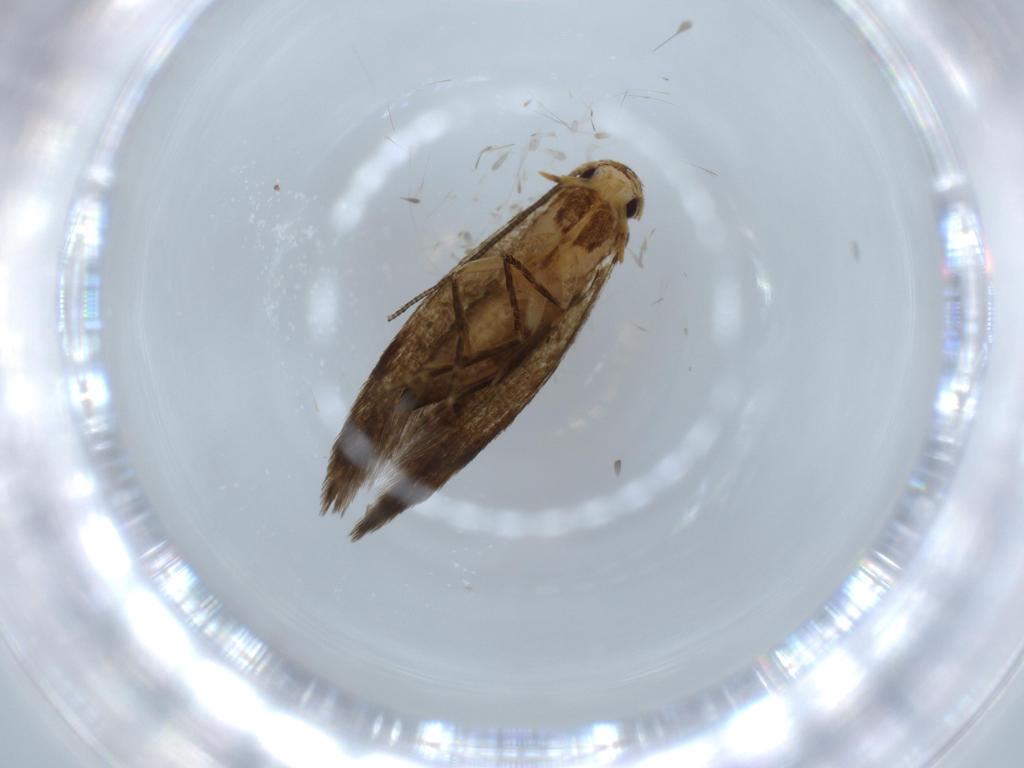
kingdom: Animalia
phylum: Arthropoda
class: Insecta
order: Lepidoptera
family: Tineidae
